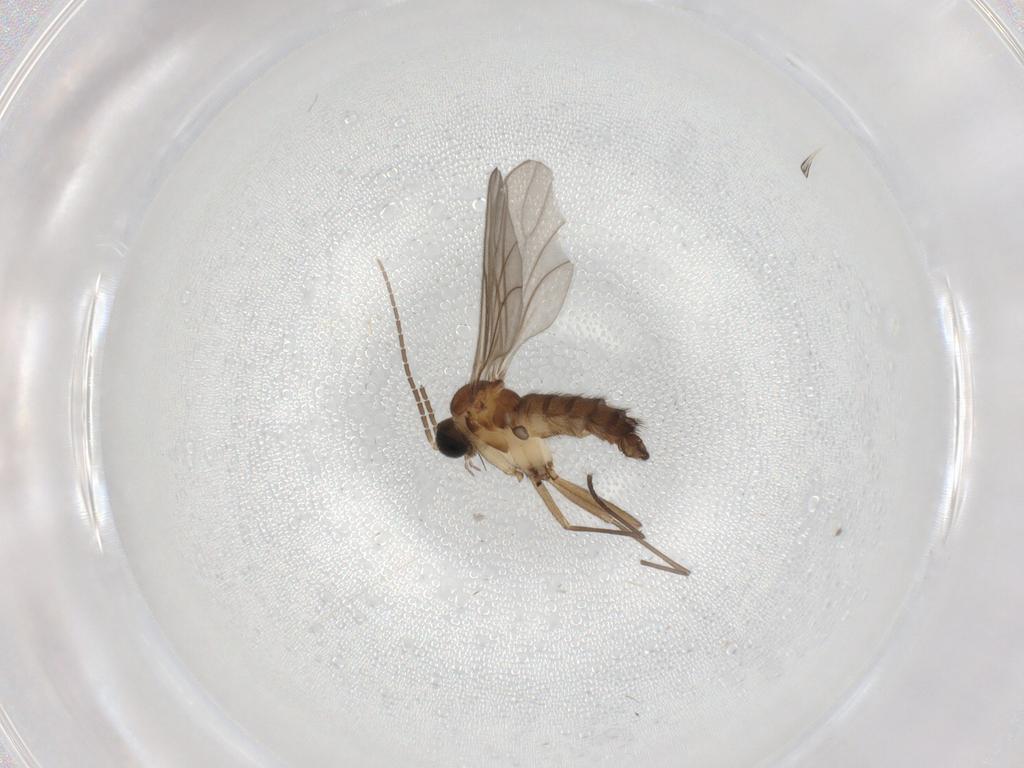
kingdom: Animalia
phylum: Arthropoda
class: Insecta
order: Diptera
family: Sciaridae
